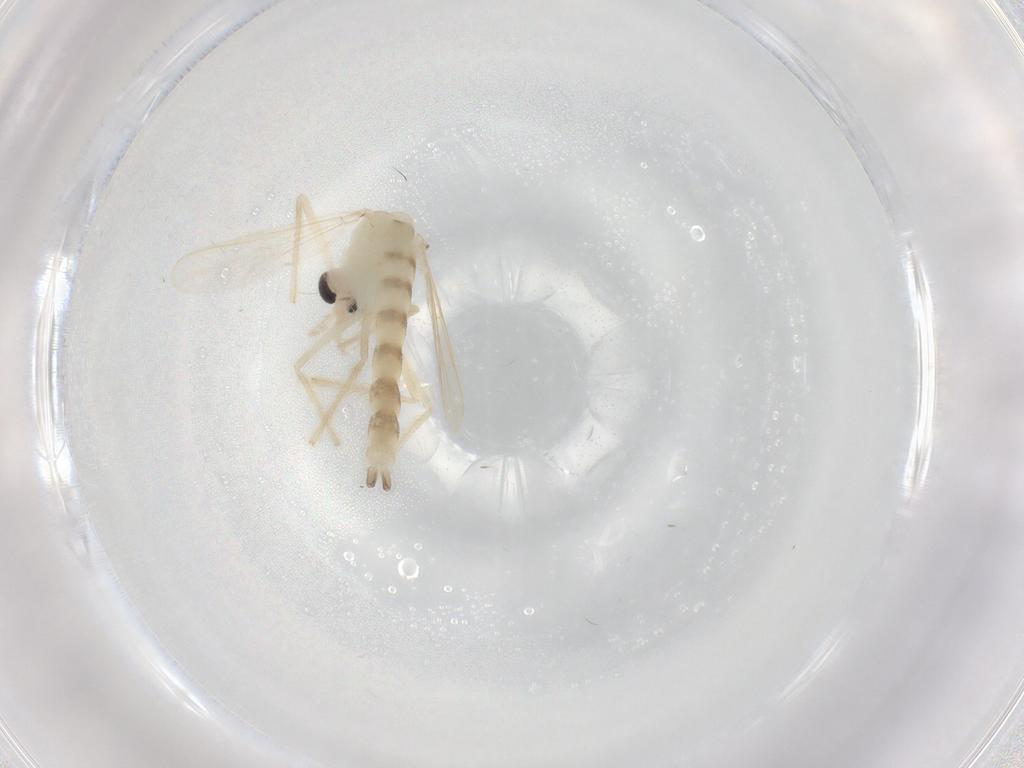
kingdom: Animalia
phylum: Arthropoda
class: Insecta
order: Diptera
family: Chironomidae
